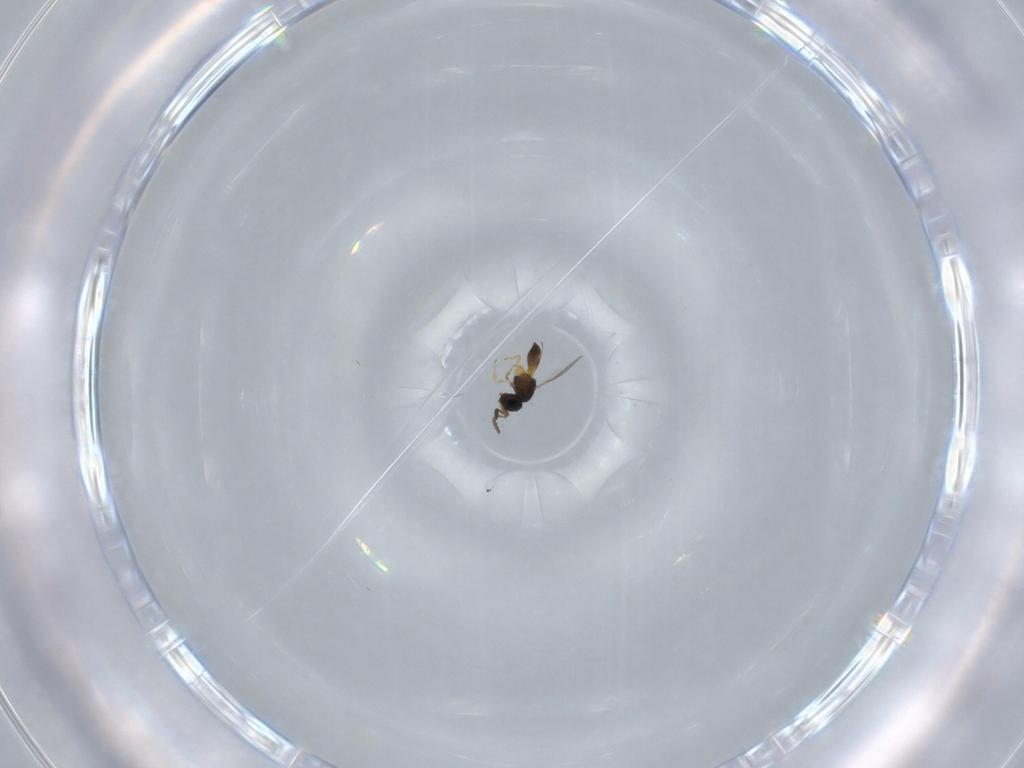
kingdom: Animalia
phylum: Arthropoda
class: Insecta
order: Hymenoptera
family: Scelionidae
